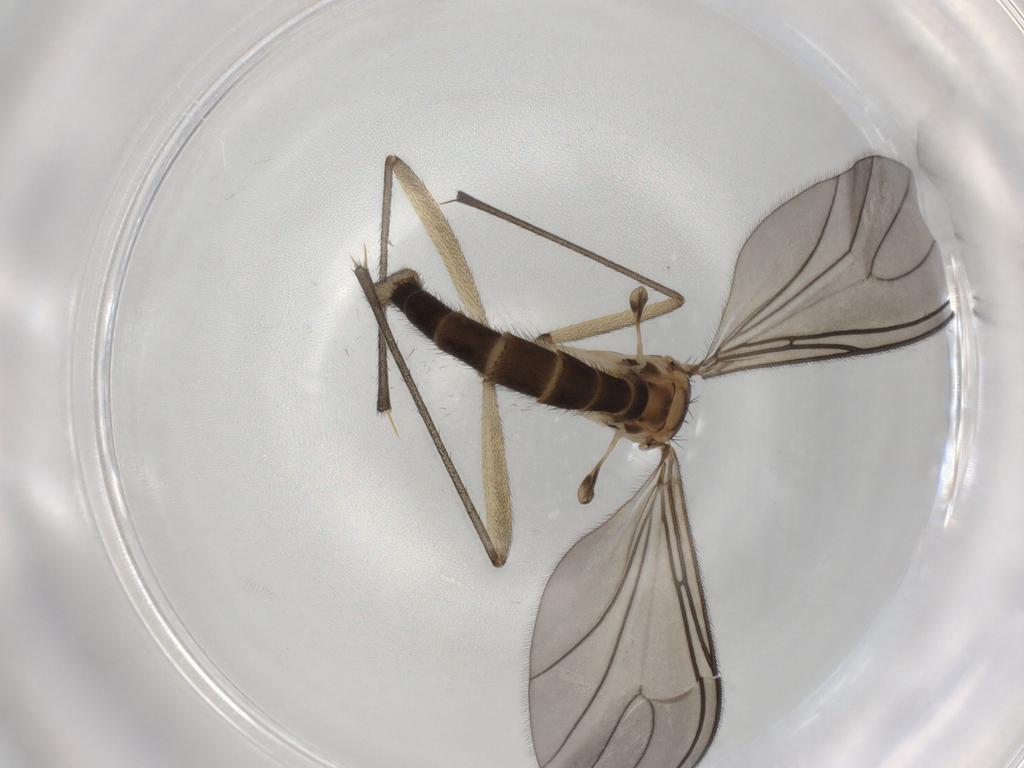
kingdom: Animalia
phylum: Arthropoda
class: Insecta
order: Diptera
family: Sciaridae
